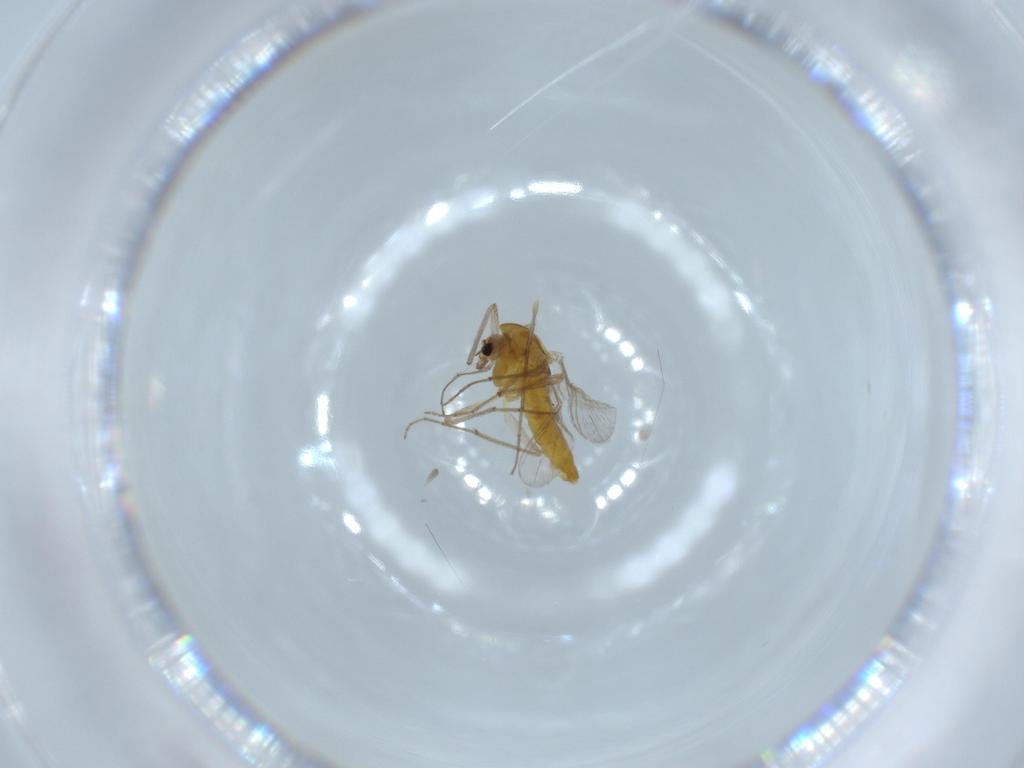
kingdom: Animalia
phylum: Arthropoda
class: Insecta
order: Diptera
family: Chironomidae
